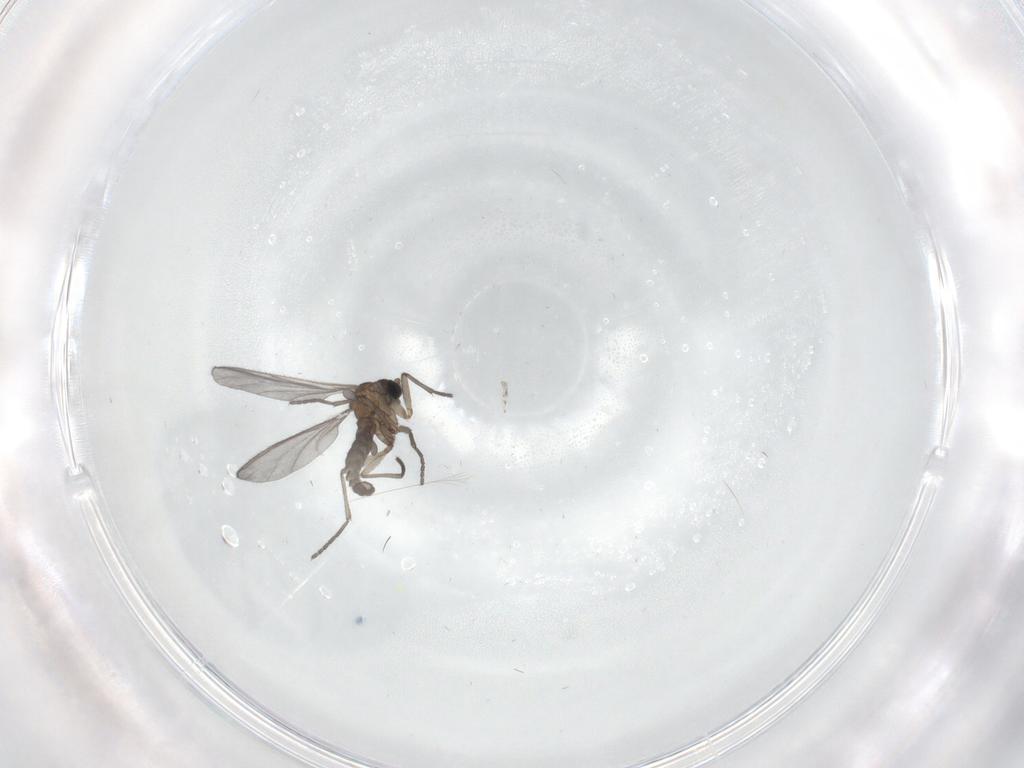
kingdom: Animalia
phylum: Arthropoda
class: Insecta
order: Diptera
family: Sciaridae
